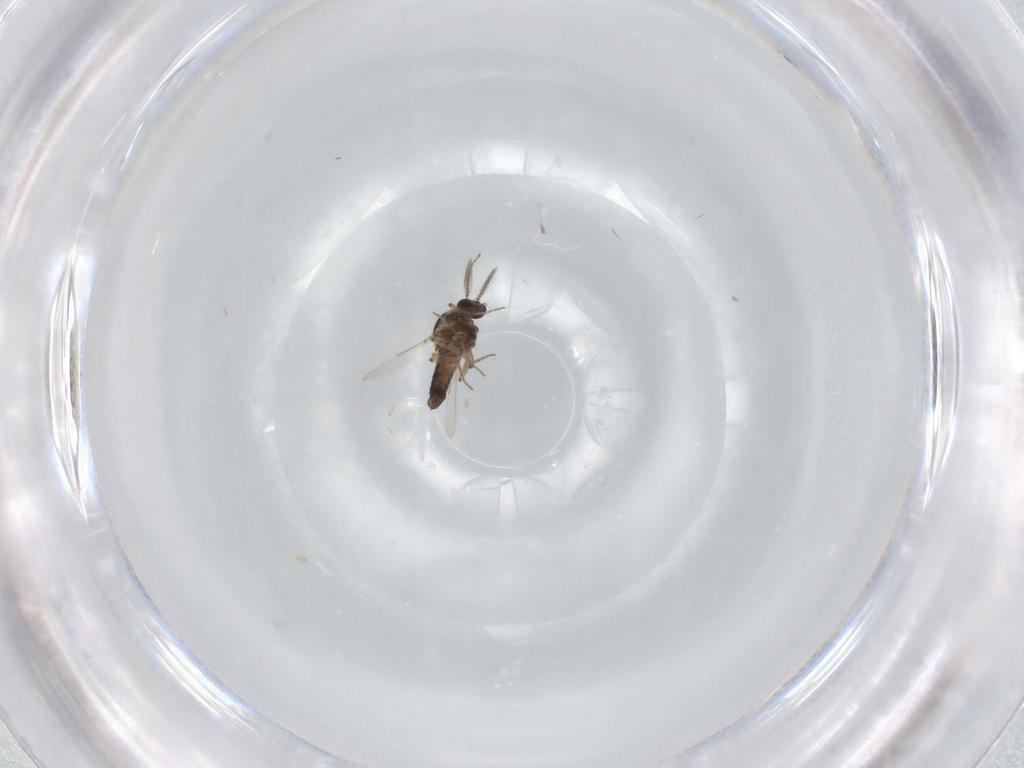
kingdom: Animalia
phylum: Arthropoda
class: Insecta
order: Diptera
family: Ceratopogonidae
